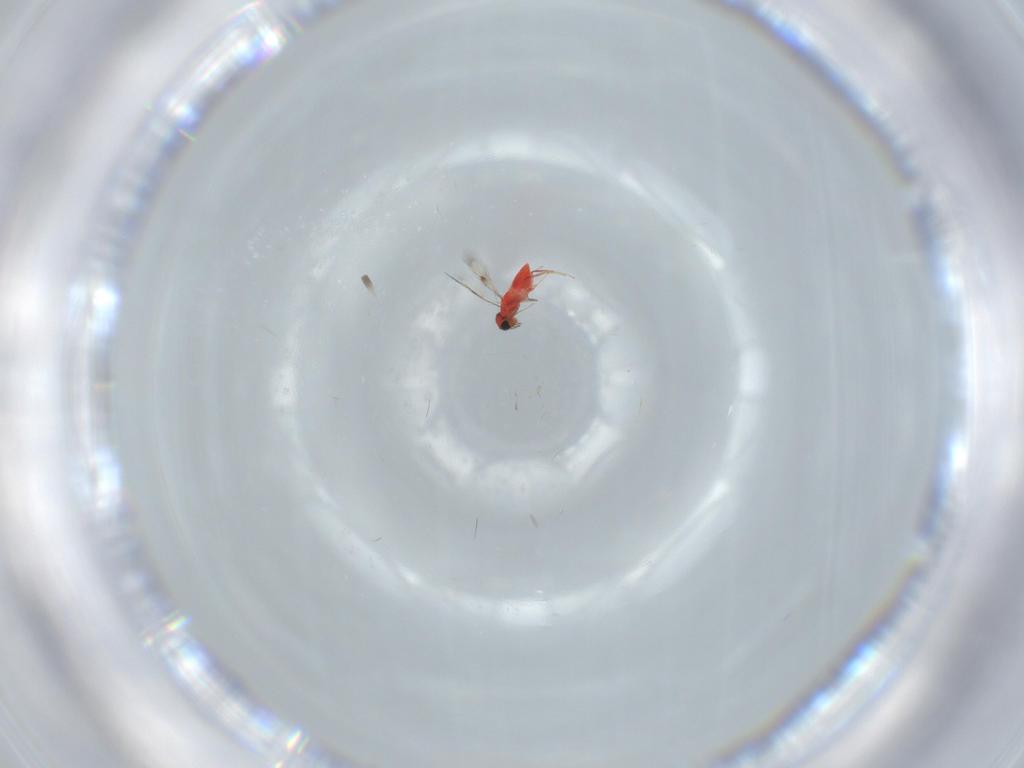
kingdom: Animalia
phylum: Arthropoda
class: Insecta
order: Hymenoptera
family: Trichogrammatidae
